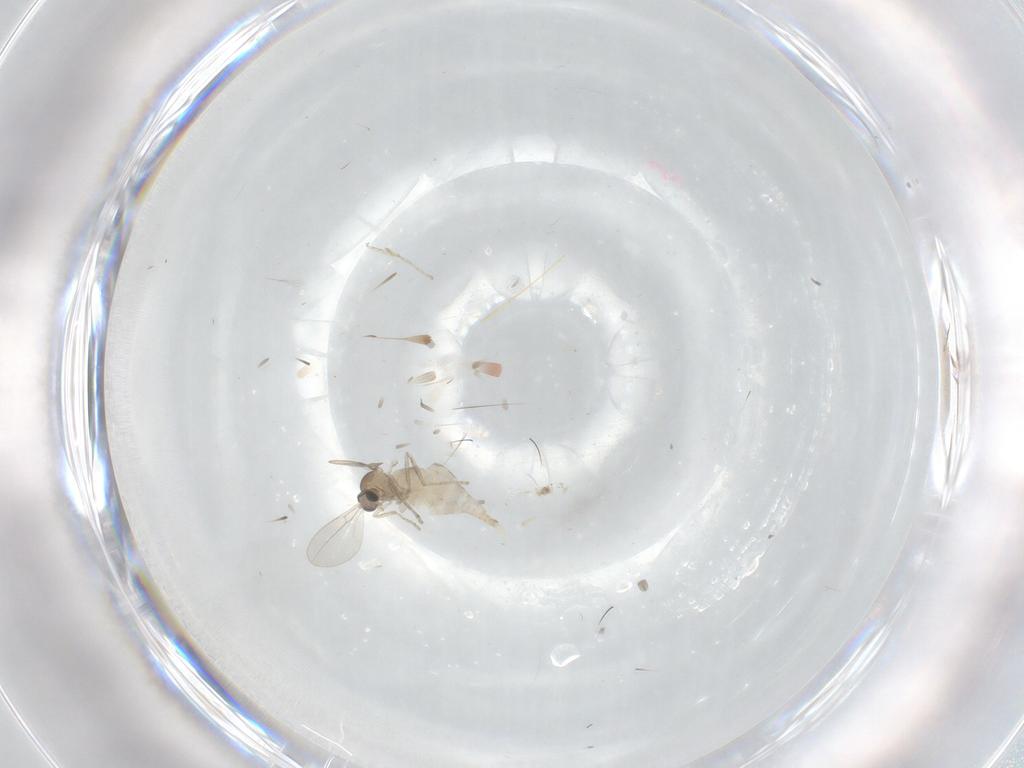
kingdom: Animalia
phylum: Arthropoda
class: Insecta
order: Diptera
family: Cecidomyiidae
